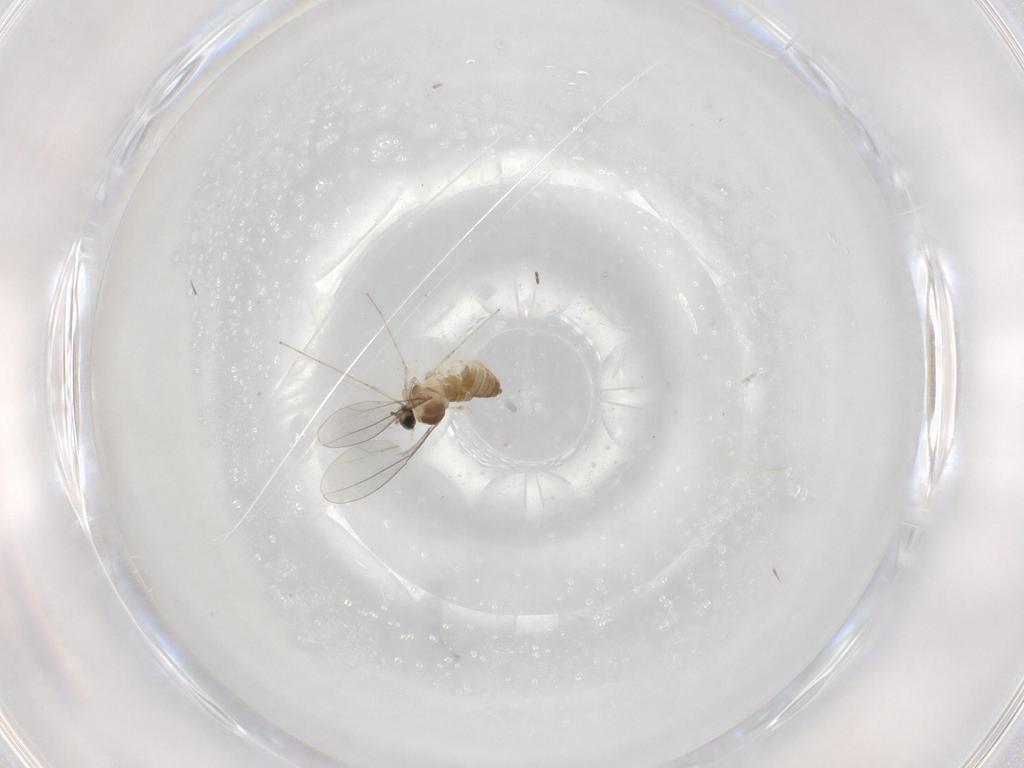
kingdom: Animalia
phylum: Arthropoda
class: Insecta
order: Diptera
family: Cecidomyiidae
